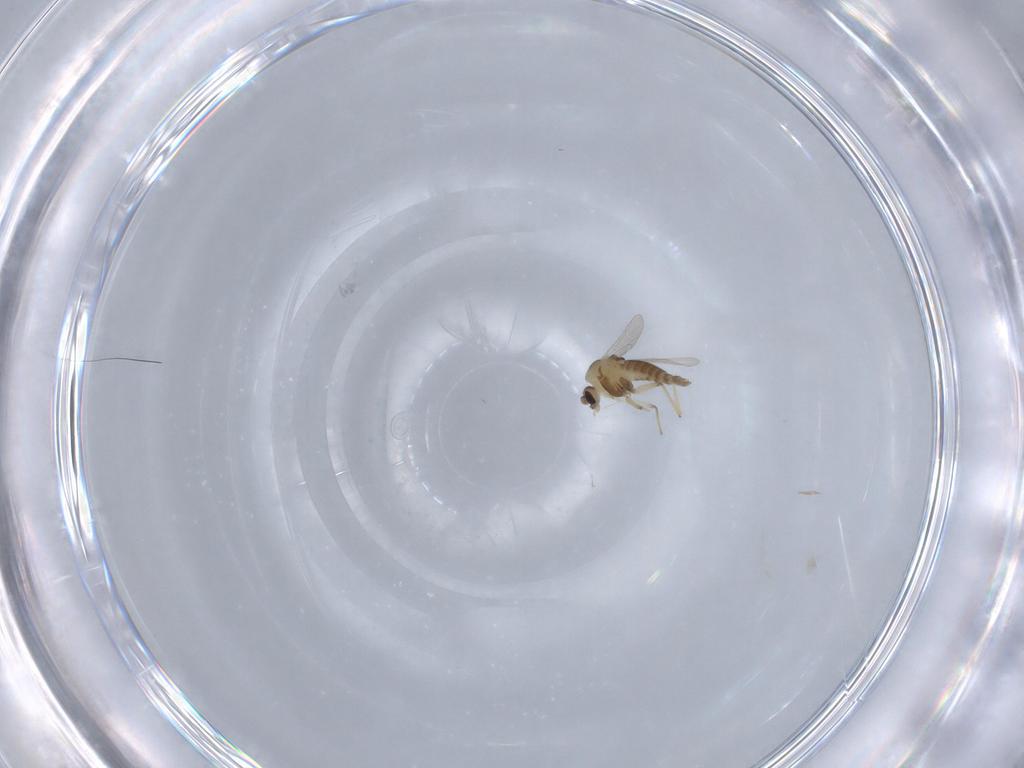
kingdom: Animalia
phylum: Arthropoda
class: Insecta
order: Diptera
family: Chironomidae
